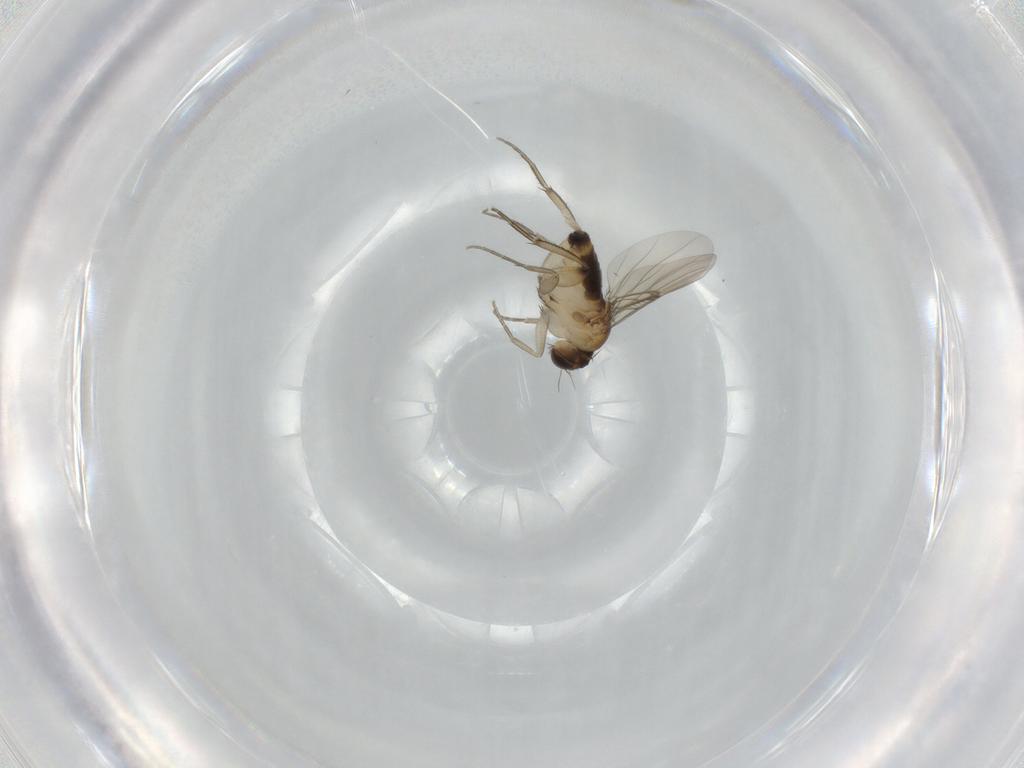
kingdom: Animalia
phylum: Arthropoda
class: Insecta
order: Diptera
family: Phoridae
